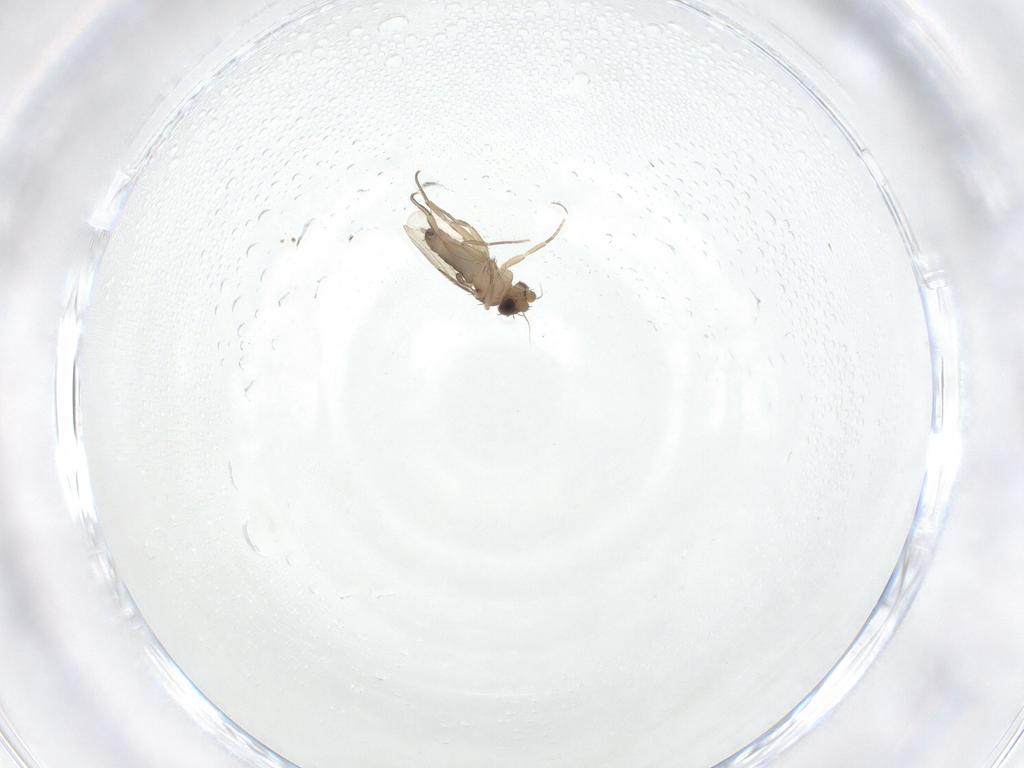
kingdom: Animalia
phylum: Arthropoda
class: Insecta
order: Diptera
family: Phoridae
